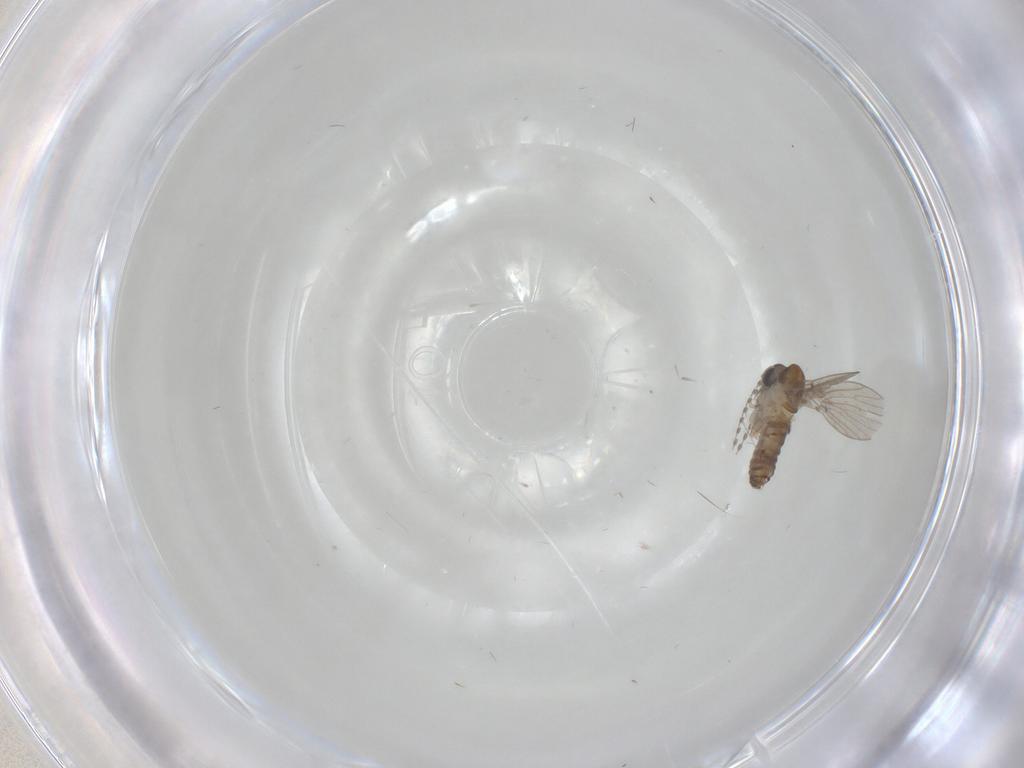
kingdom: Animalia
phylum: Arthropoda
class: Insecta
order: Diptera
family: Psychodidae
